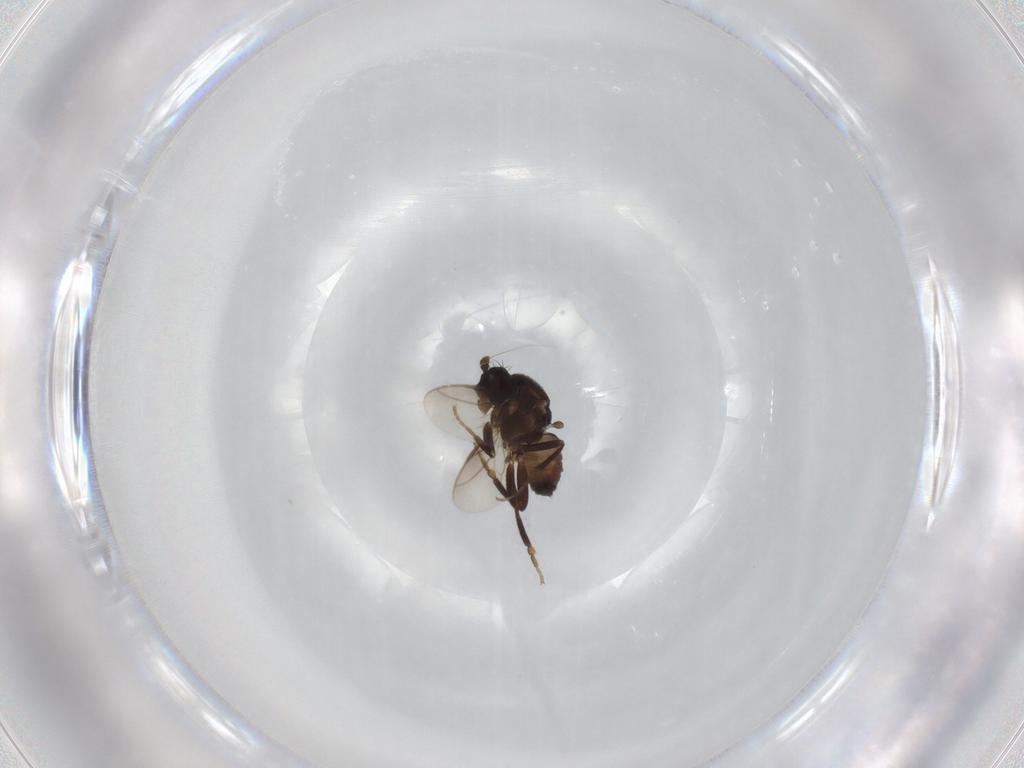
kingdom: Animalia
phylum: Arthropoda
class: Insecta
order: Diptera
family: Sphaeroceridae
